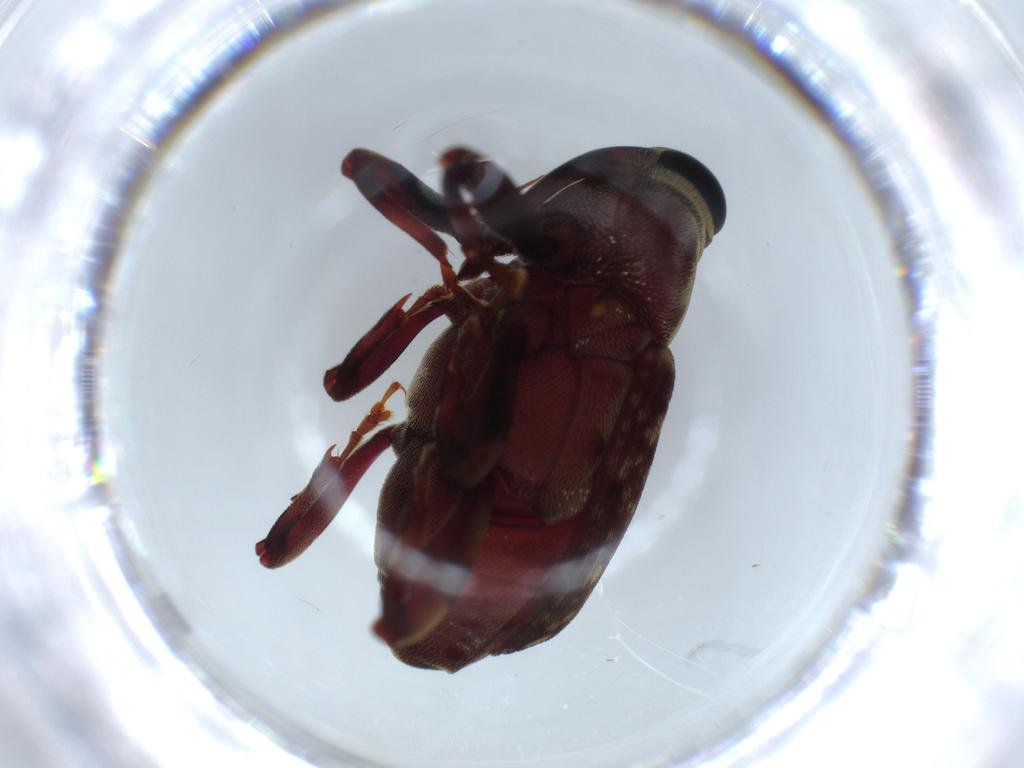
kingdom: Animalia
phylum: Arthropoda
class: Insecta
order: Coleoptera
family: Curculionidae
